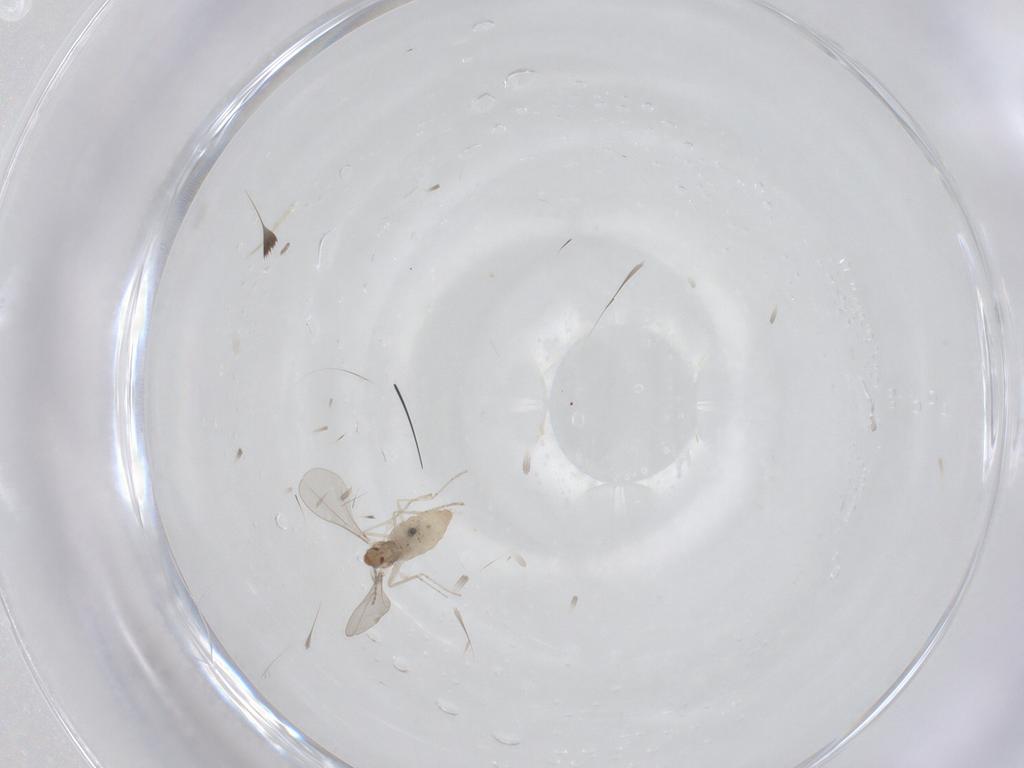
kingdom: Animalia
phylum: Arthropoda
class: Insecta
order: Diptera
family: Cecidomyiidae
